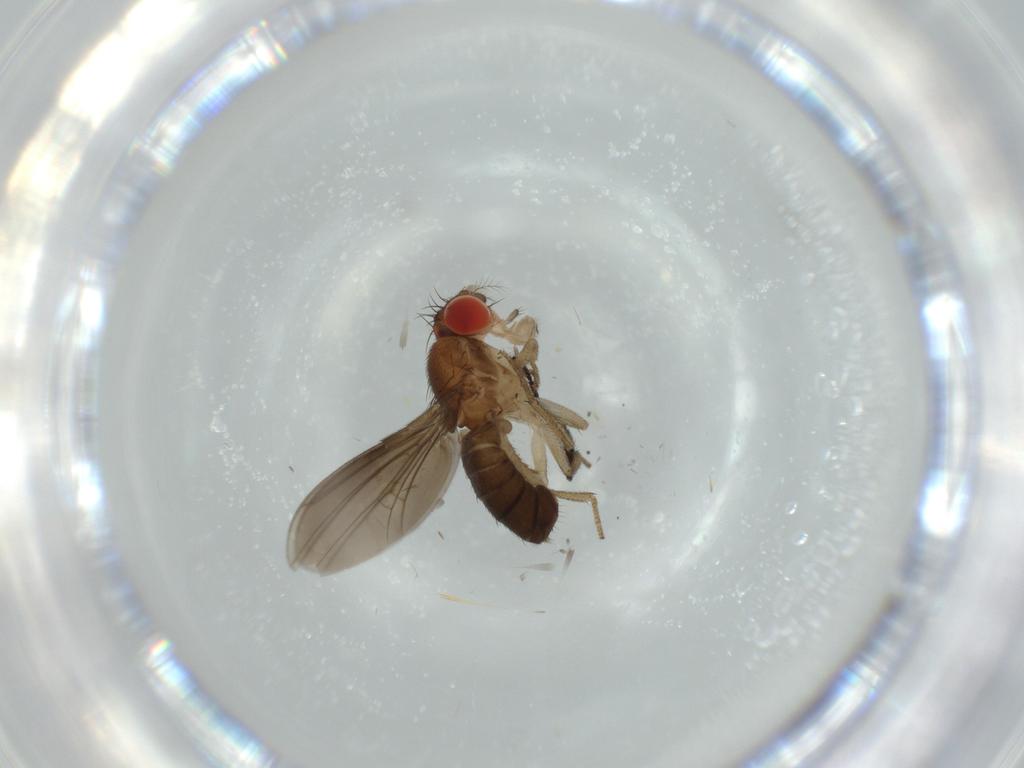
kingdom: Animalia
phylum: Arthropoda
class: Insecta
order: Diptera
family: Drosophilidae
